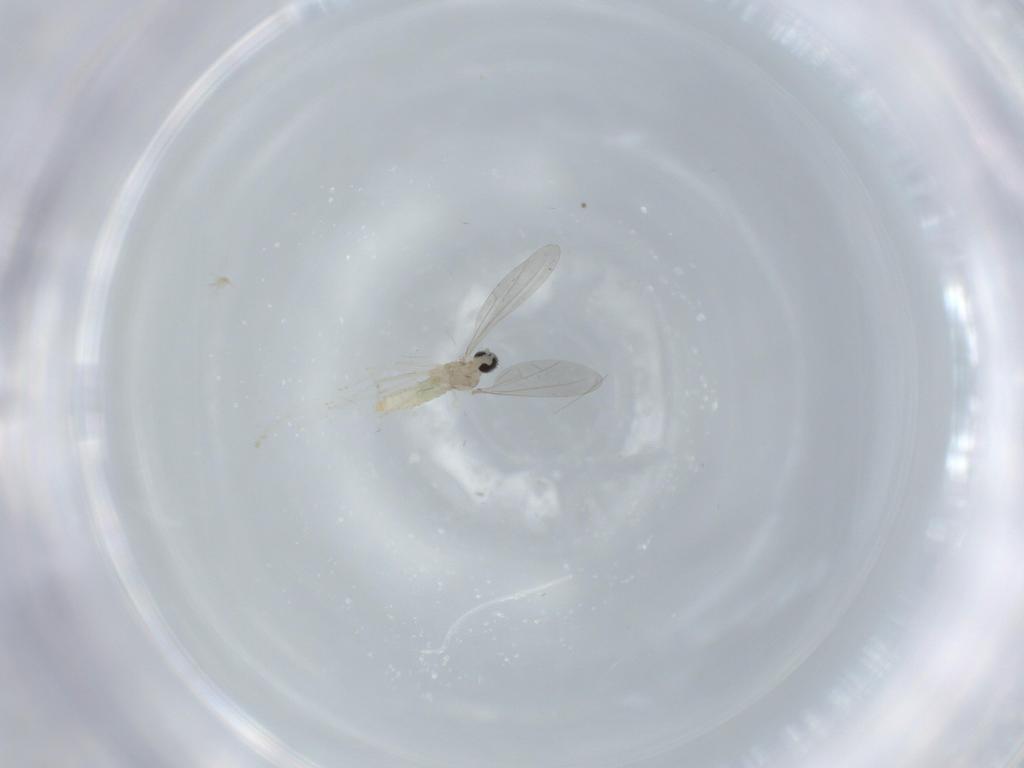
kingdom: Animalia
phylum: Arthropoda
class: Insecta
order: Diptera
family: Cecidomyiidae
